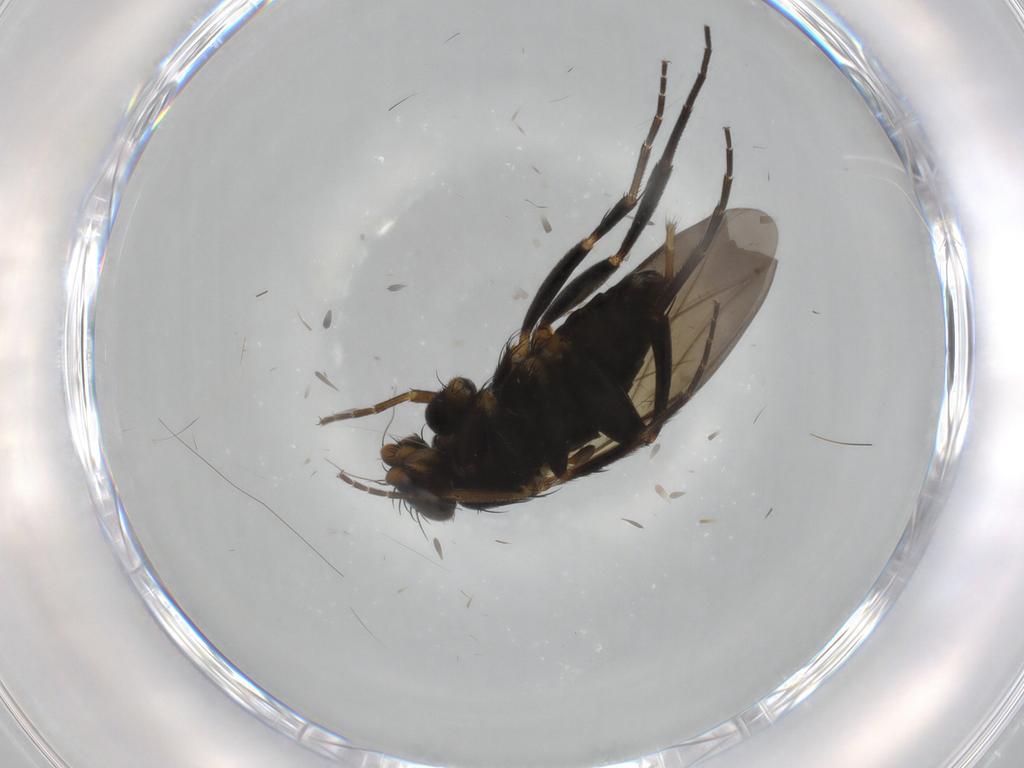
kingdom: Animalia
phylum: Arthropoda
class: Insecta
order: Diptera
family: Phoridae
